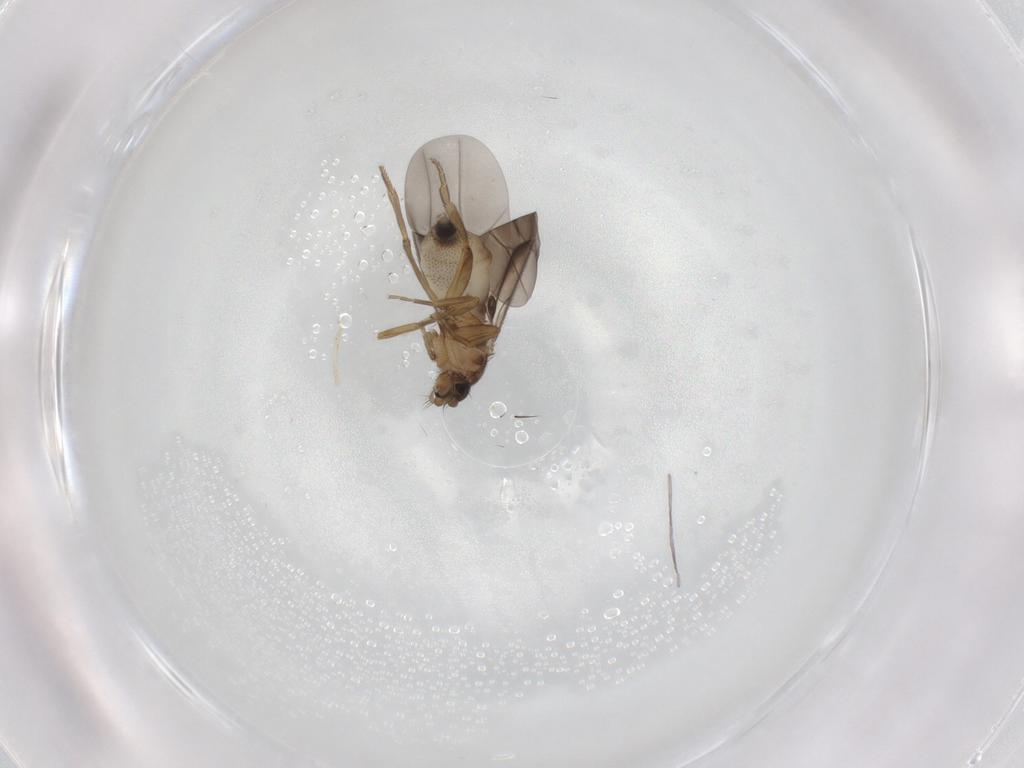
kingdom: Animalia
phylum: Arthropoda
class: Insecta
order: Diptera
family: Phoridae
